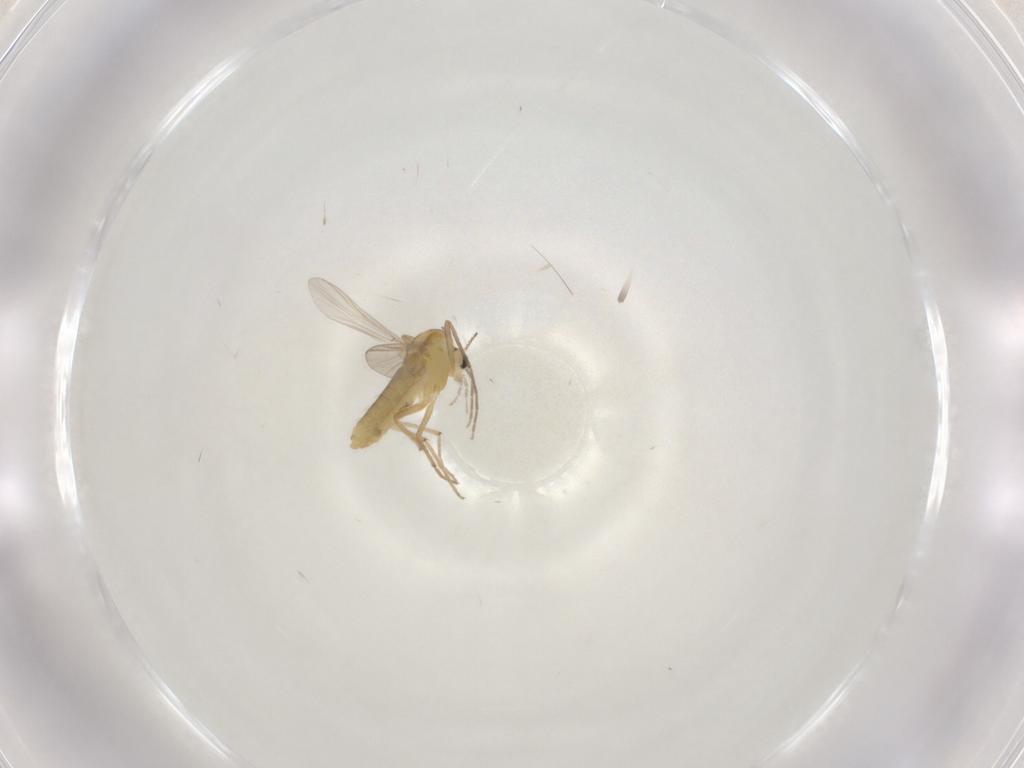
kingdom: Animalia
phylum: Arthropoda
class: Insecta
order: Diptera
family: Chironomidae
